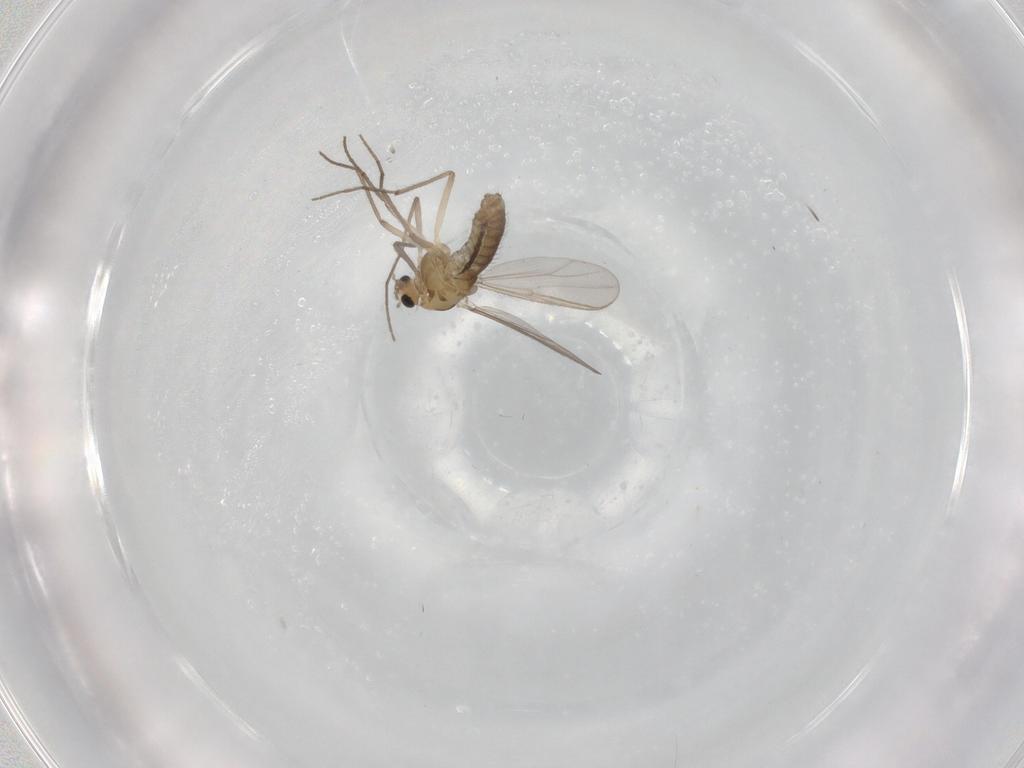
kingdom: Animalia
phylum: Arthropoda
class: Insecta
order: Diptera
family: Chironomidae
